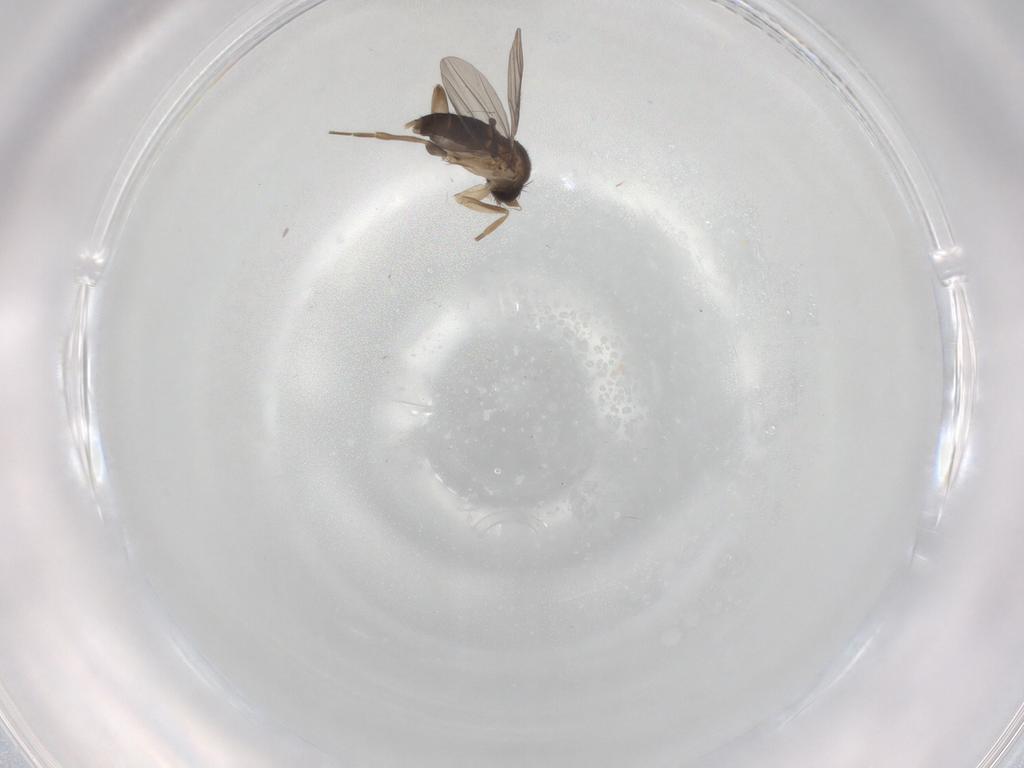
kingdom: Animalia
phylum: Arthropoda
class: Insecta
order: Diptera
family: Phoridae
